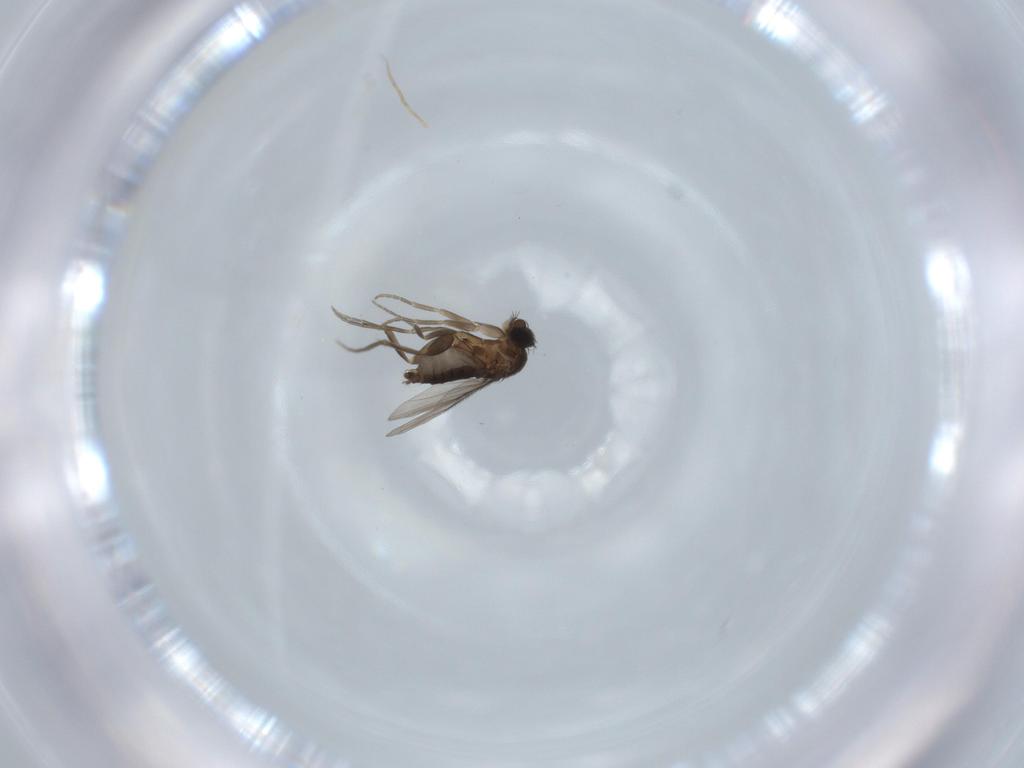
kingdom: Animalia
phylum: Arthropoda
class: Insecta
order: Diptera
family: Phoridae
